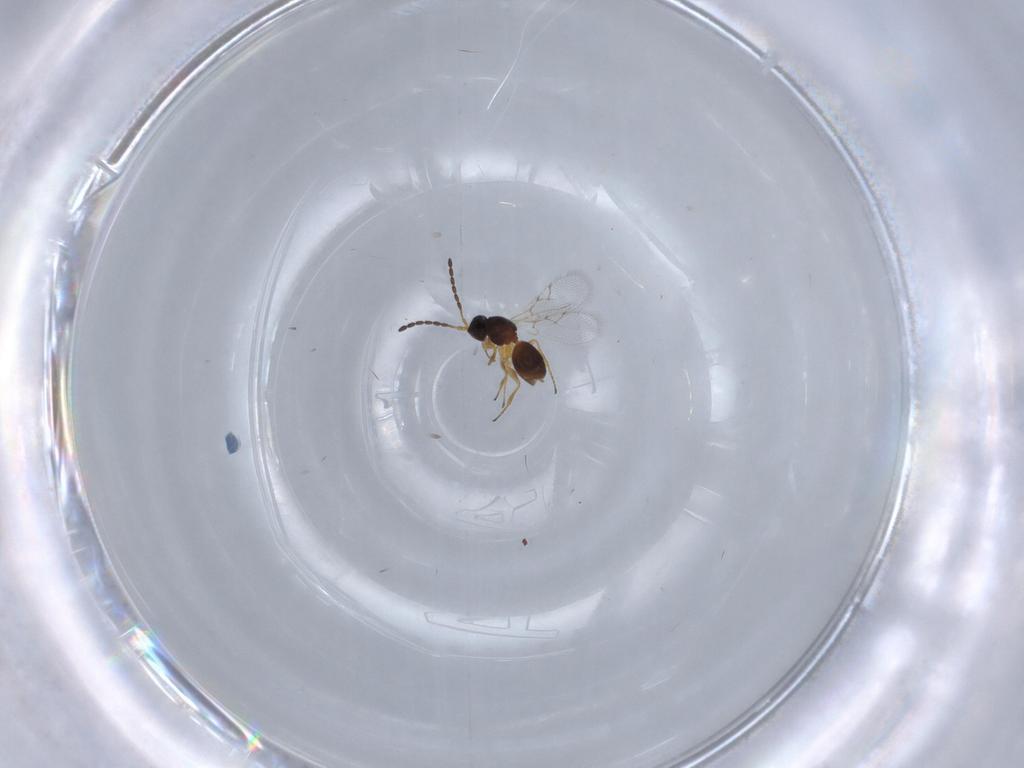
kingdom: Animalia
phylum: Arthropoda
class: Insecta
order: Hymenoptera
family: Figitidae
